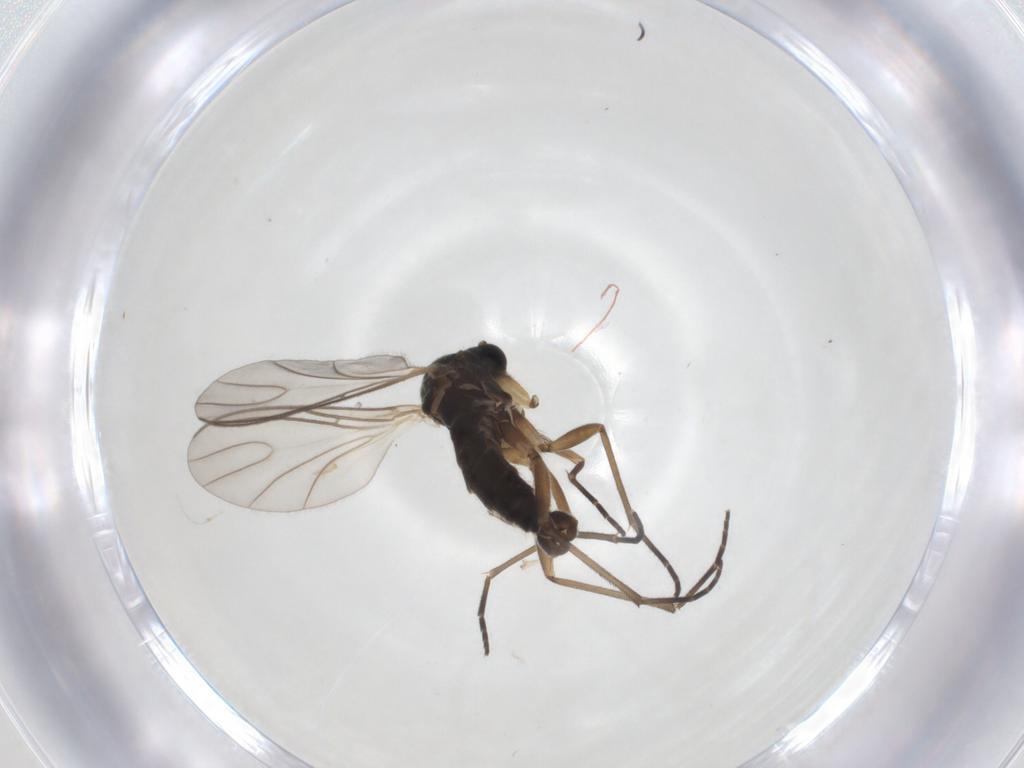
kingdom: Animalia
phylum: Arthropoda
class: Insecta
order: Diptera
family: Sciaridae
